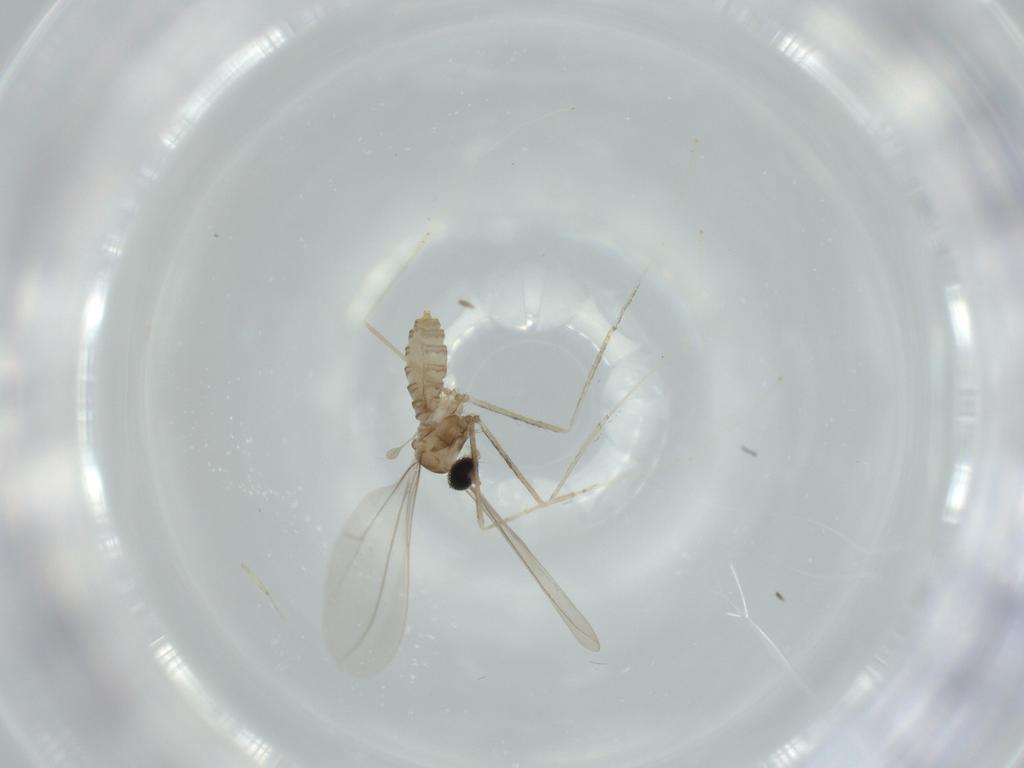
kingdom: Animalia
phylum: Arthropoda
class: Insecta
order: Diptera
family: Cecidomyiidae
